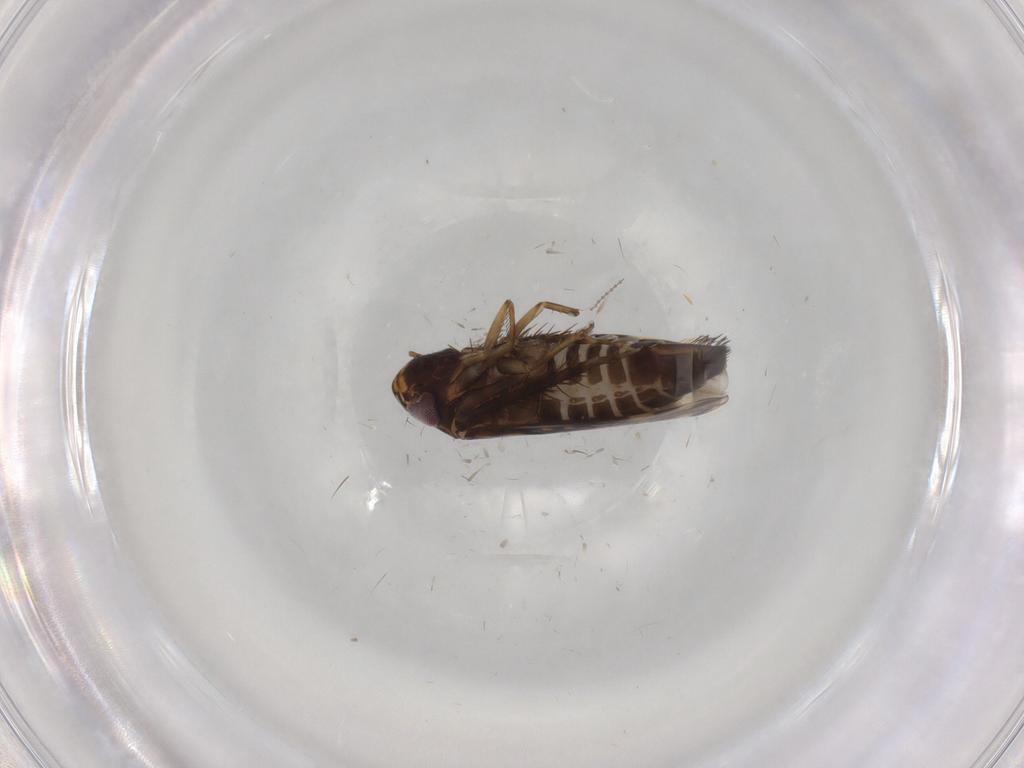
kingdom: Animalia
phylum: Arthropoda
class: Insecta
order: Hemiptera
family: Cicadellidae
